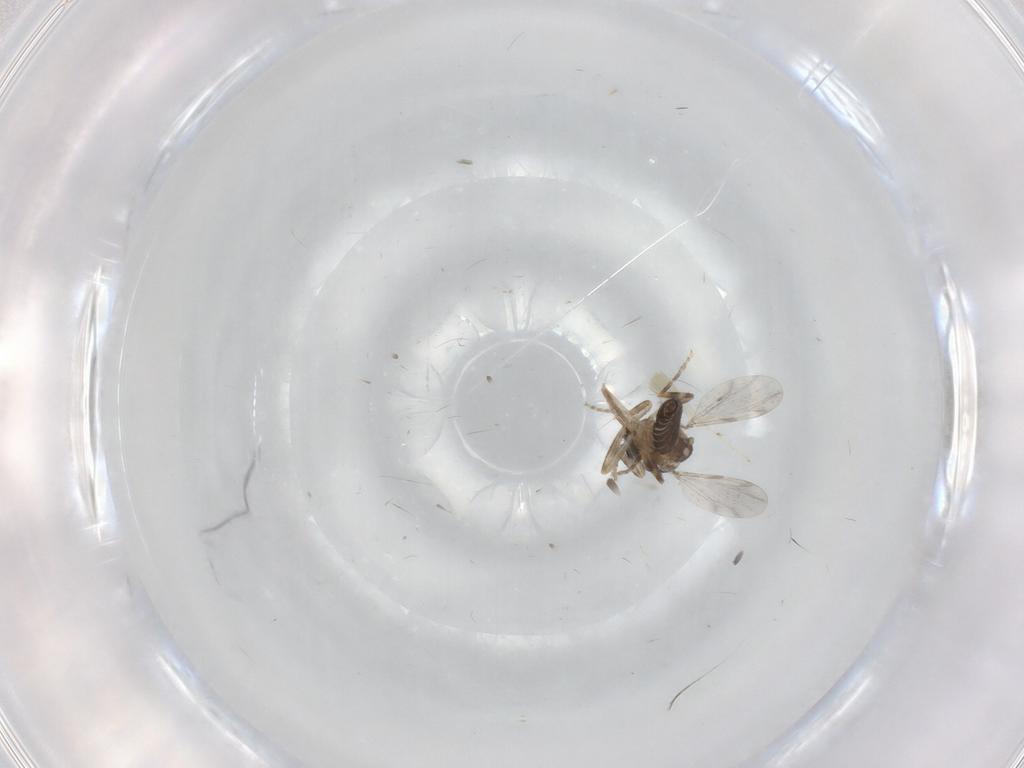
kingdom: Animalia
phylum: Arthropoda
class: Insecta
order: Diptera
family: Ceratopogonidae
